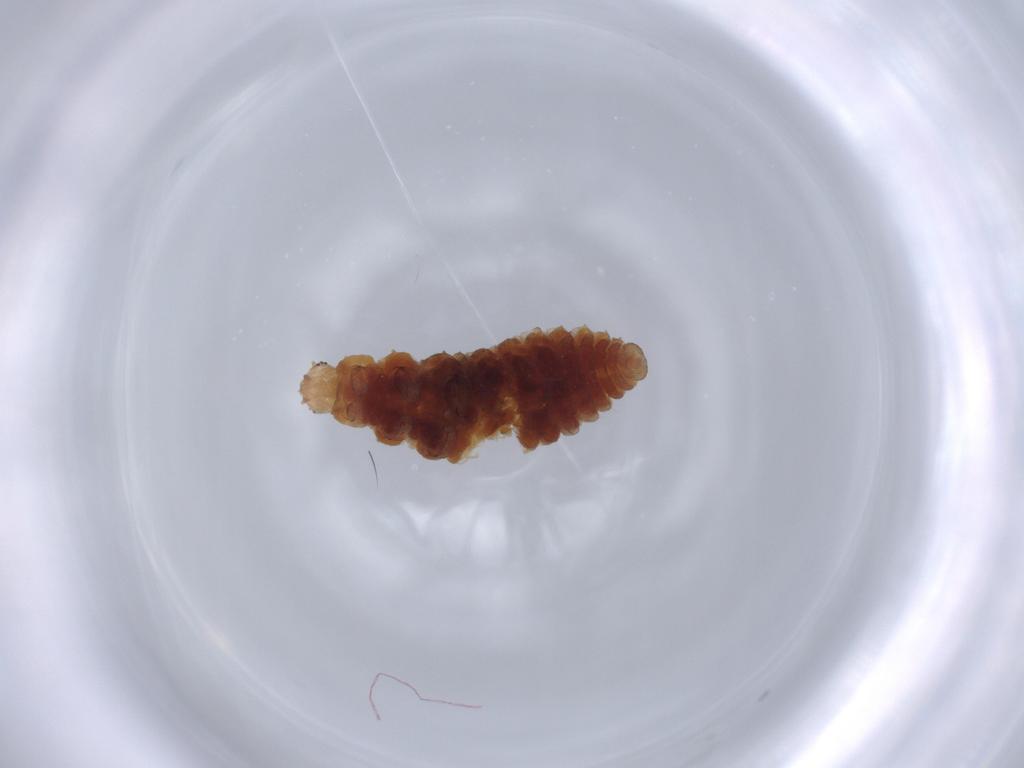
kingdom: Animalia
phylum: Arthropoda
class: Insecta
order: Coleoptera
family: Coccinellidae
